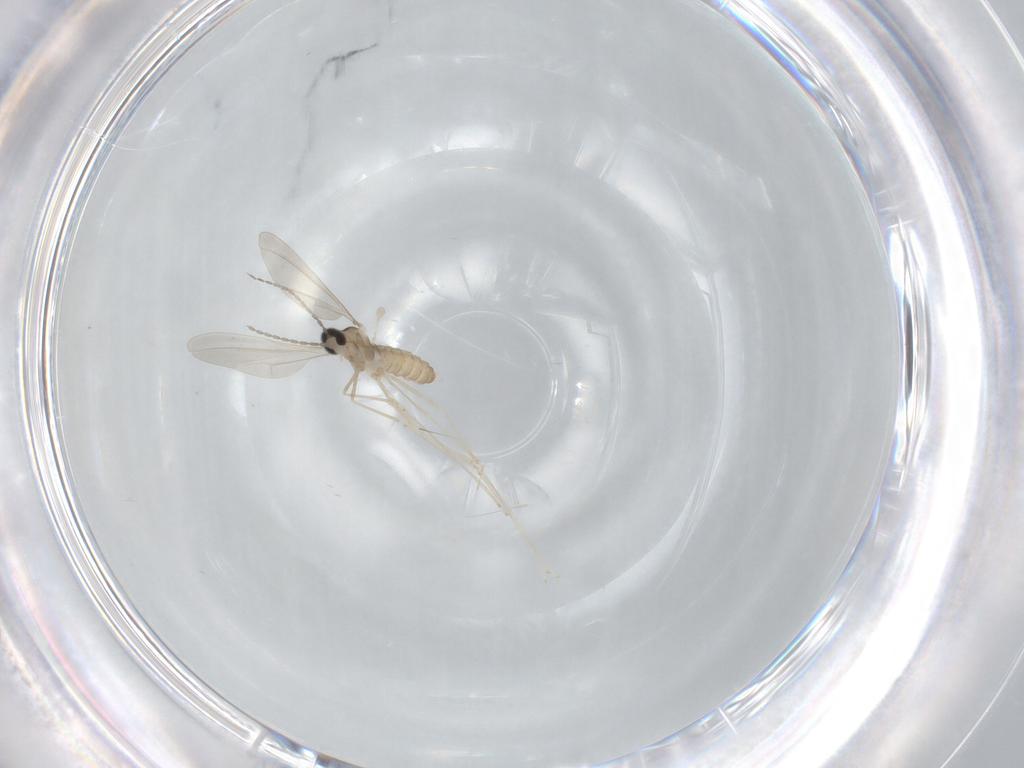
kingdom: Animalia
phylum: Arthropoda
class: Insecta
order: Diptera
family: Cecidomyiidae
